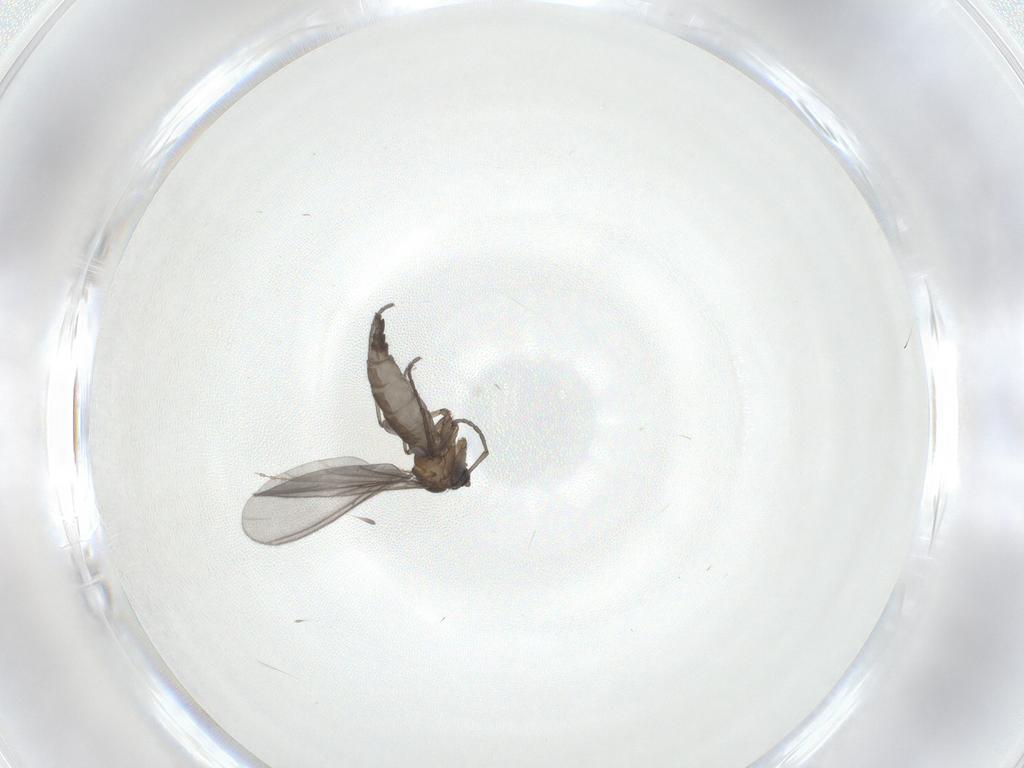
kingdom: Animalia
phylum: Arthropoda
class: Insecta
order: Diptera
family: Sciaridae
